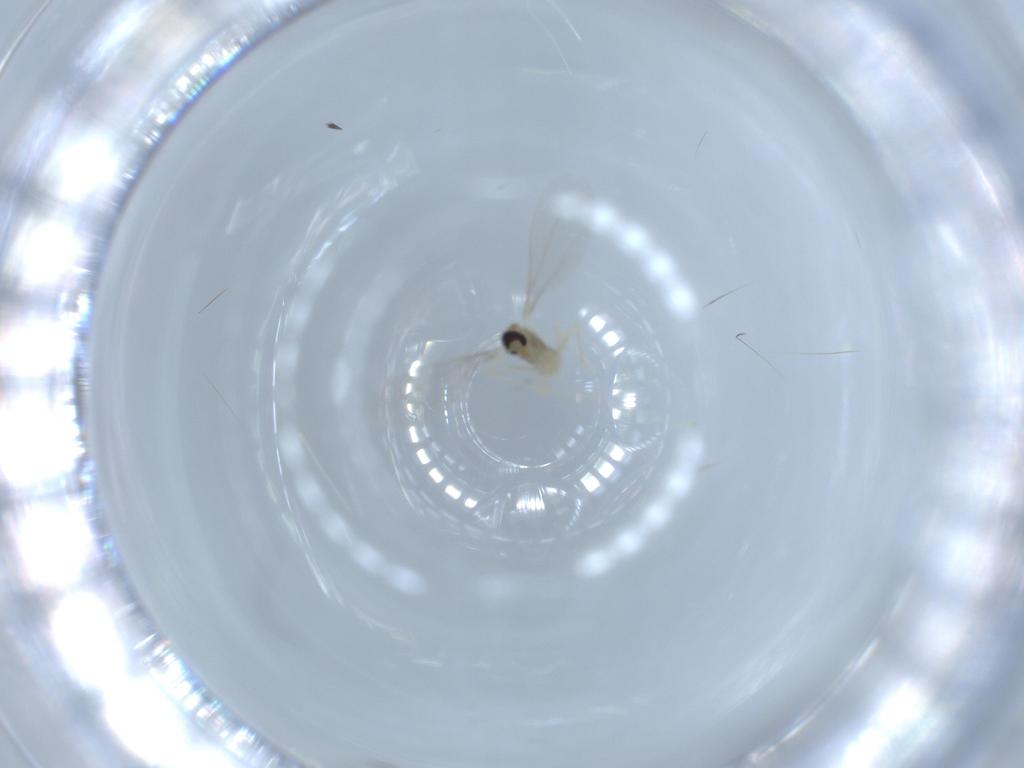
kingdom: Animalia
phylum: Arthropoda
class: Insecta
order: Diptera
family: Cecidomyiidae
